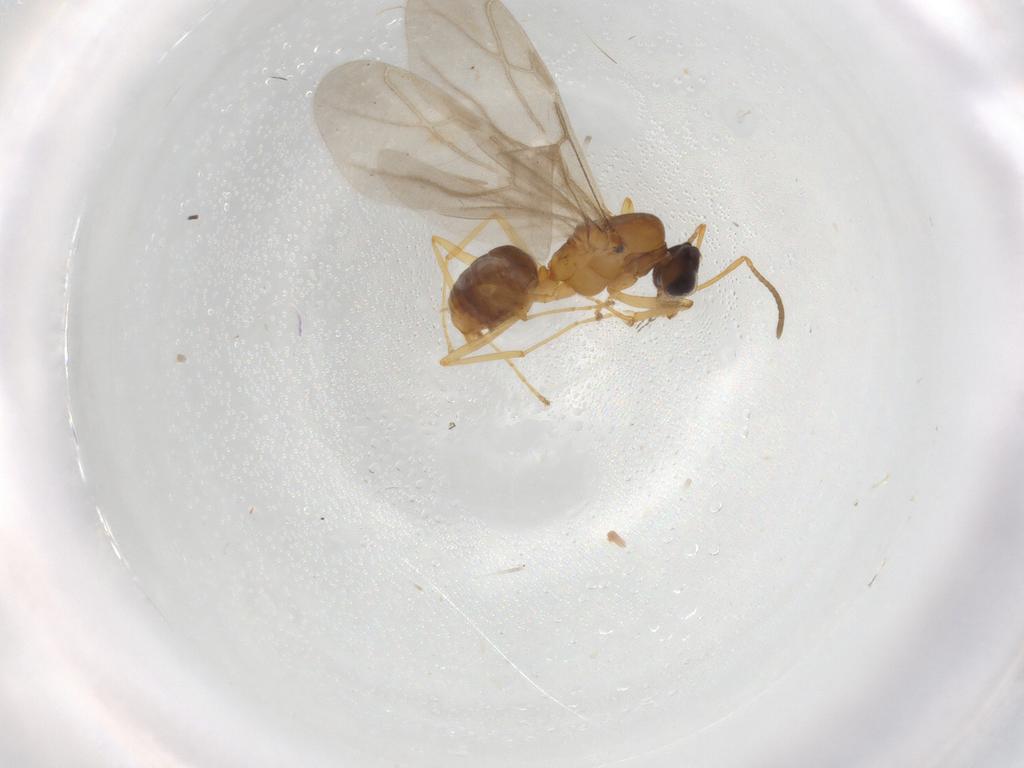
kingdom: Animalia
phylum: Arthropoda
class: Insecta
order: Hymenoptera
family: Formicidae
